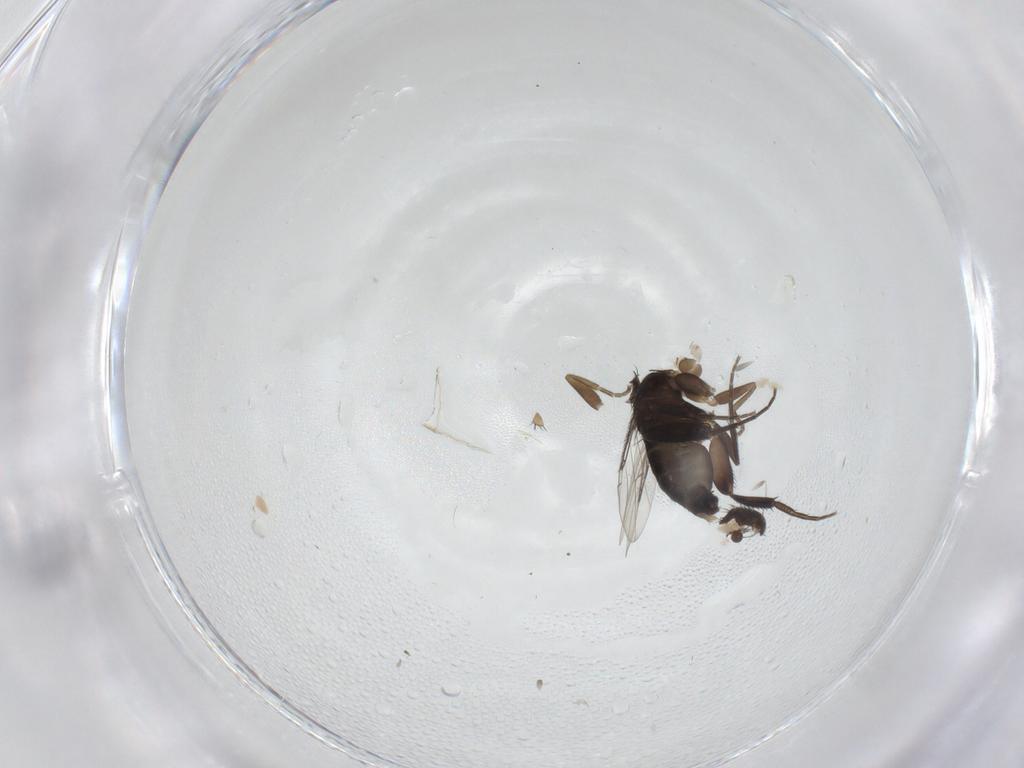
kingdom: Animalia
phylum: Arthropoda
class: Insecta
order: Diptera
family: Phoridae
